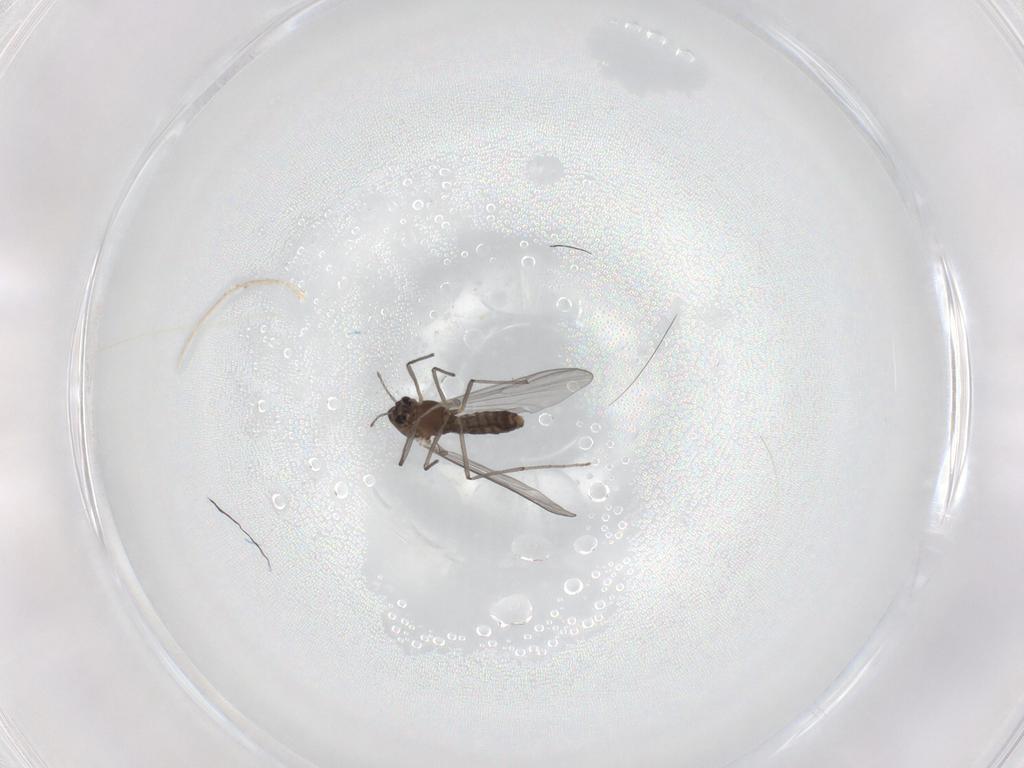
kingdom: Animalia
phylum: Arthropoda
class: Insecta
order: Diptera
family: Chironomidae
